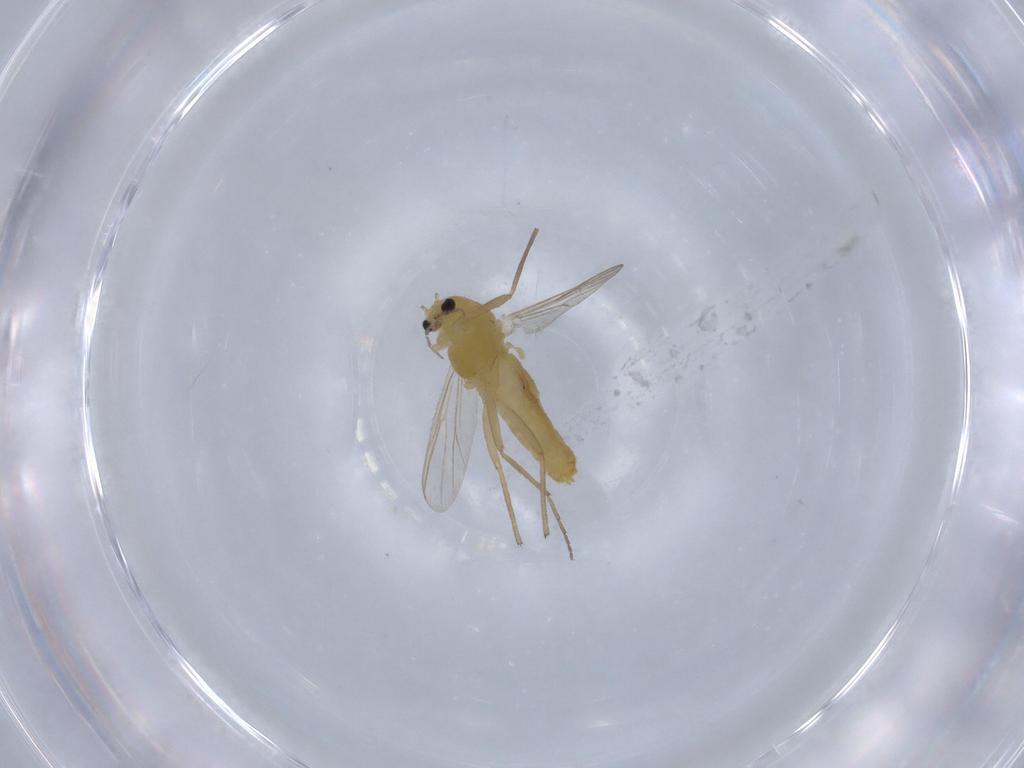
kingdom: Animalia
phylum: Arthropoda
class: Insecta
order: Diptera
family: Chironomidae
